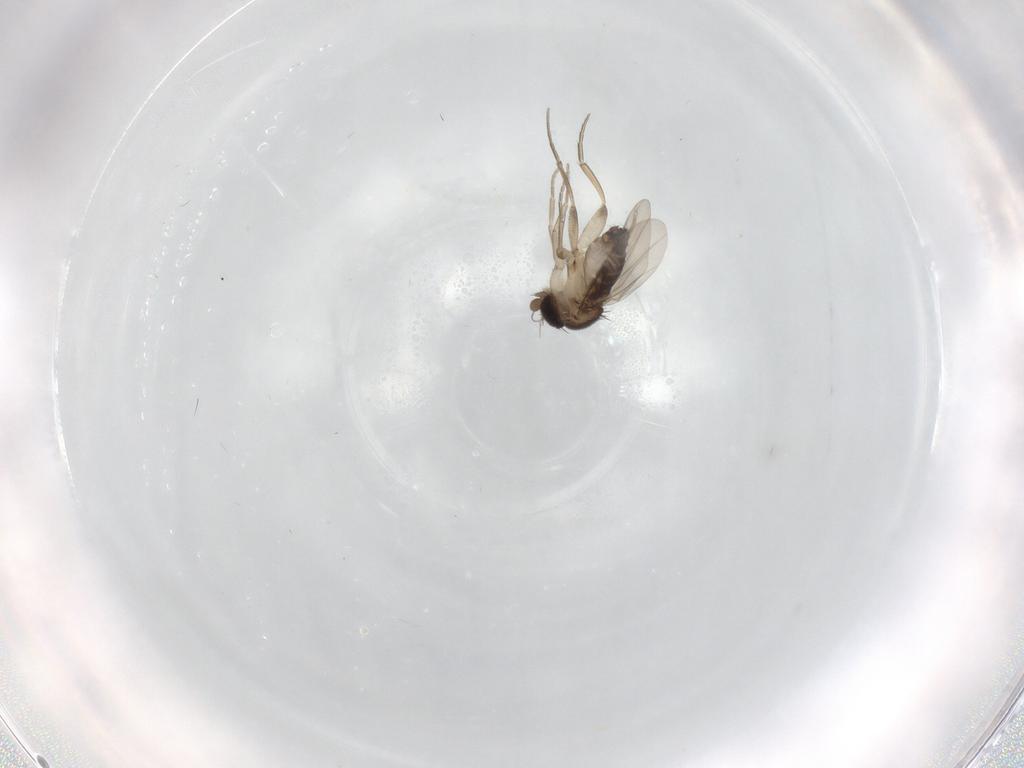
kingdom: Animalia
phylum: Arthropoda
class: Insecta
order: Diptera
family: Phoridae
